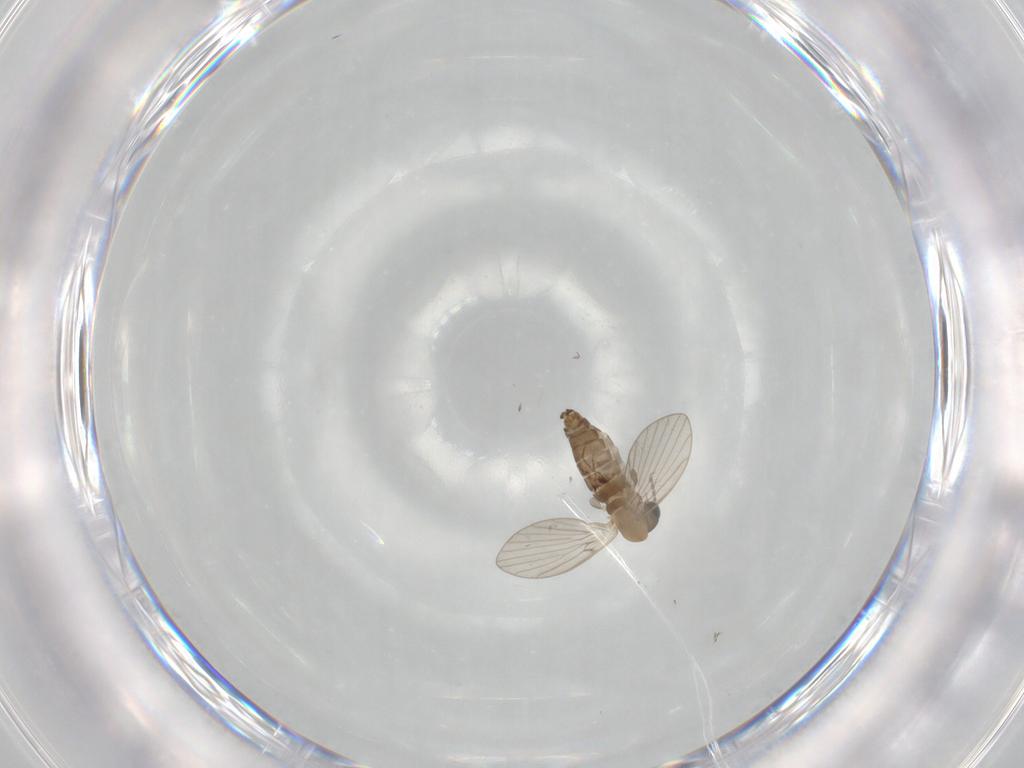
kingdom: Animalia
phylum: Arthropoda
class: Insecta
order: Diptera
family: Psychodidae
